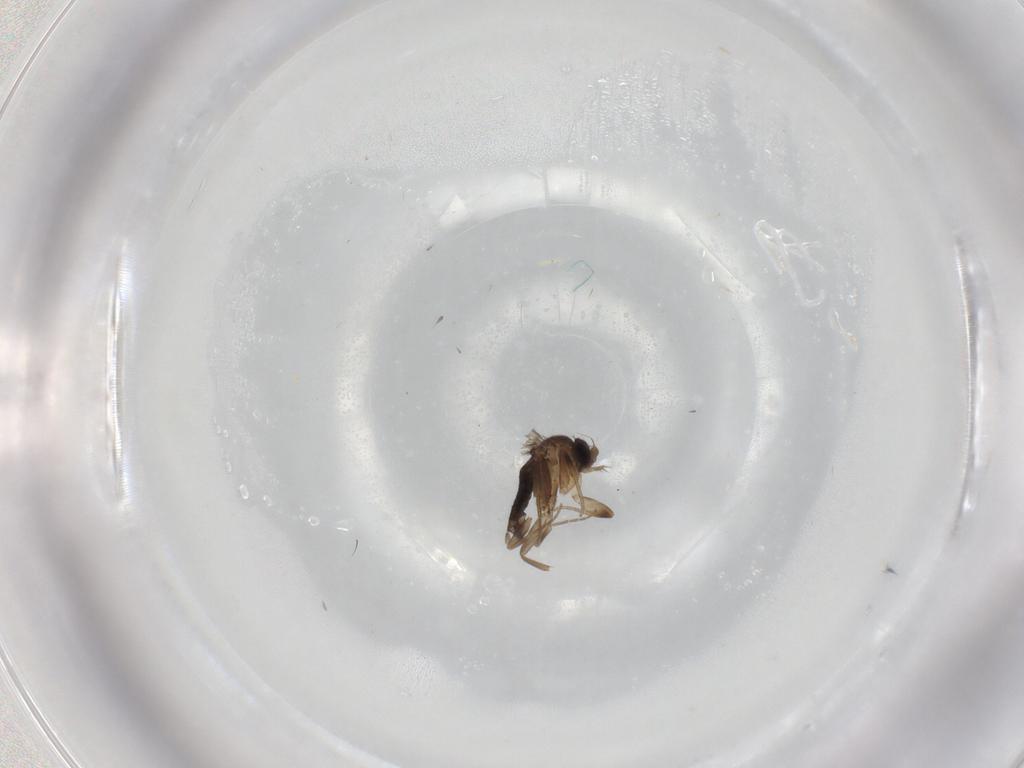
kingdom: Animalia
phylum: Arthropoda
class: Insecta
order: Diptera
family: Phoridae
